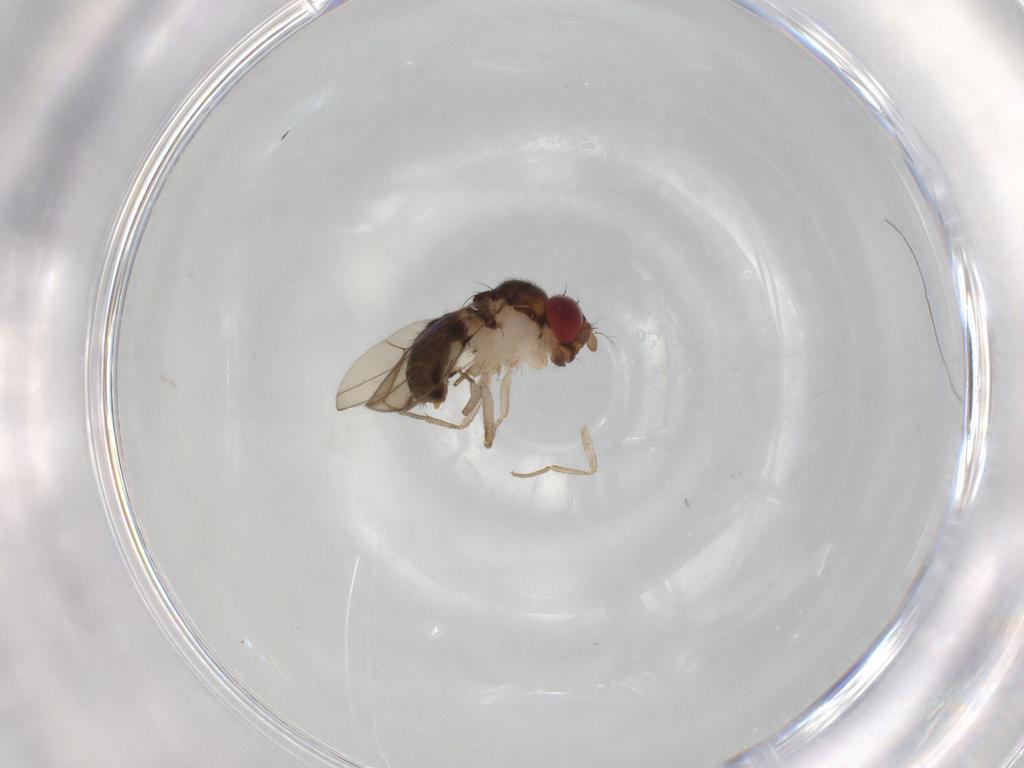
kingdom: Animalia
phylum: Arthropoda
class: Insecta
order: Diptera
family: Drosophilidae
